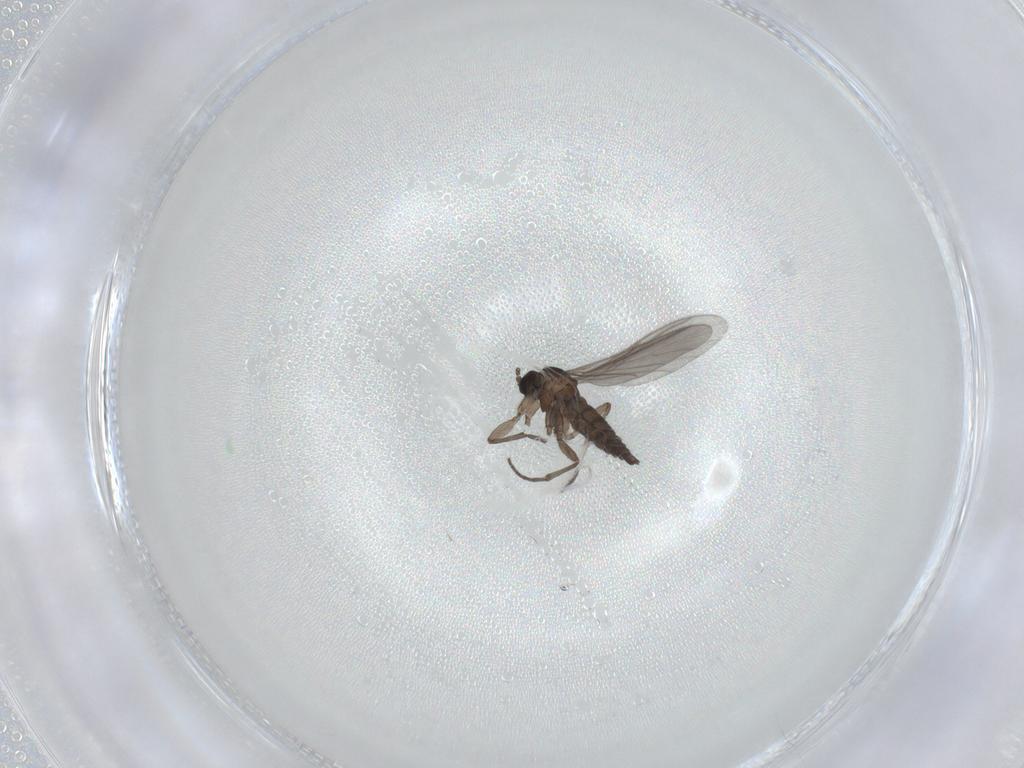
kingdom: Animalia
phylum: Arthropoda
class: Insecta
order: Diptera
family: Sciaridae
